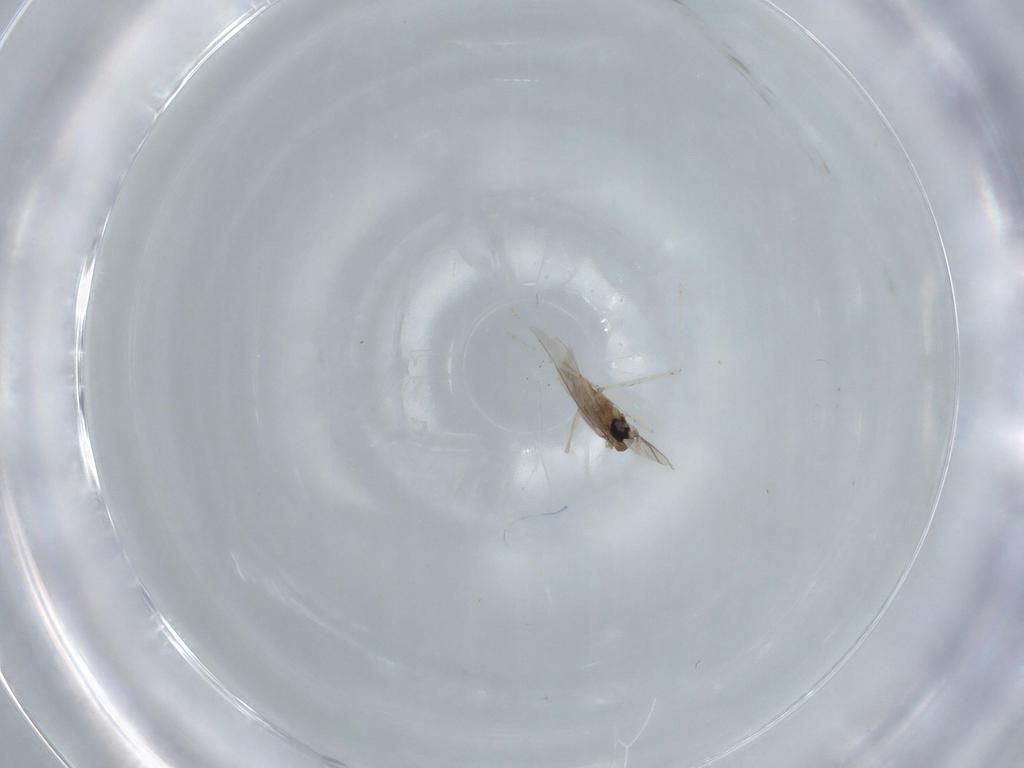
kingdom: Animalia
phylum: Arthropoda
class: Insecta
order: Diptera
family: Cecidomyiidae
